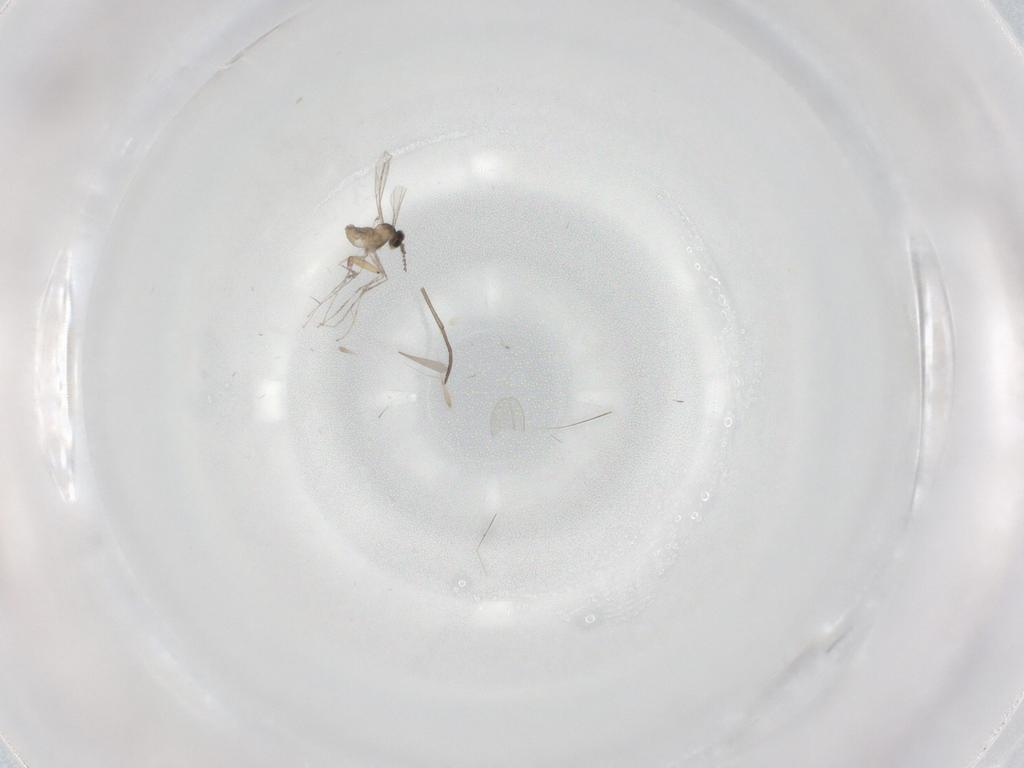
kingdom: Animalia
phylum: Arthropoda
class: Insecta
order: Diptera
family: Cecidomyiidae
